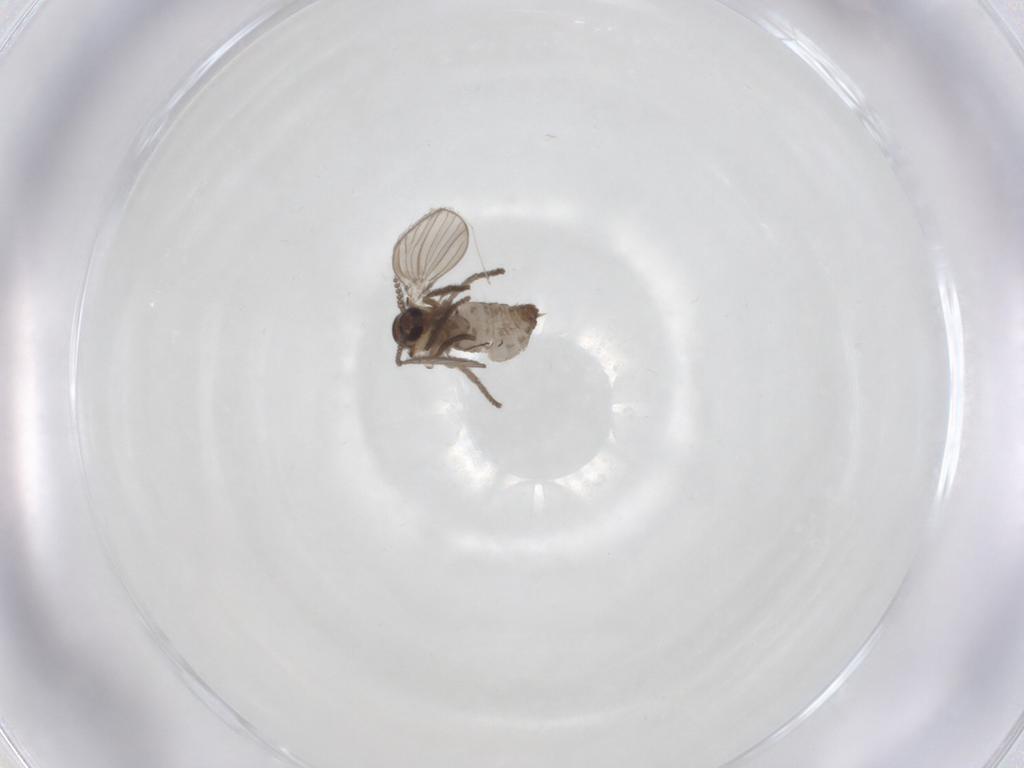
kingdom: Animalia
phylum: Arthropoda
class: Insecta
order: Diptera
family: Psychodidae
